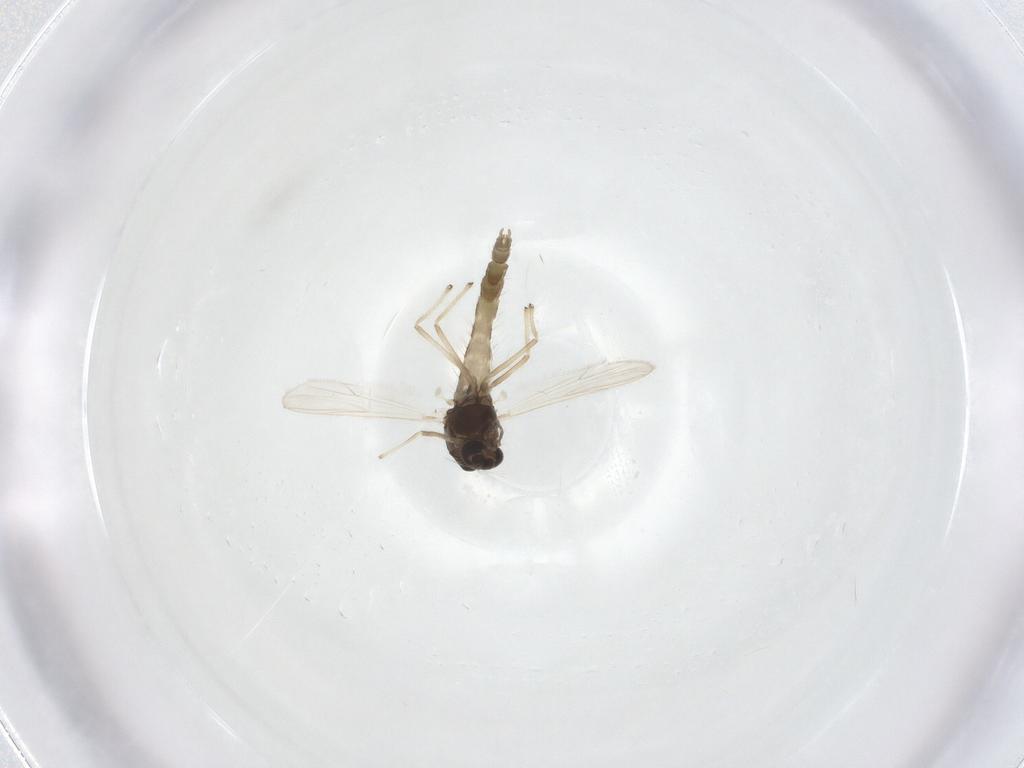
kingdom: Animalia
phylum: Arthropoda
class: Insecta
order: Diptera
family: Chironomidae
